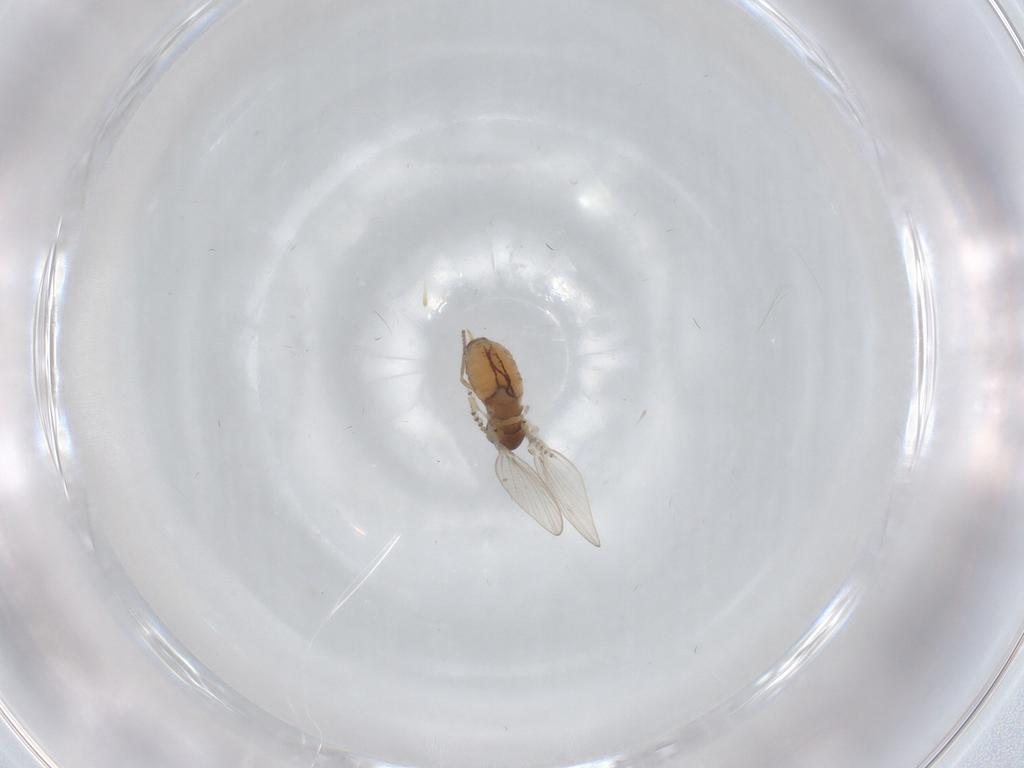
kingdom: Animalia
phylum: Arthropoda
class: Insecta
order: Diptera
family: Psychodidae
